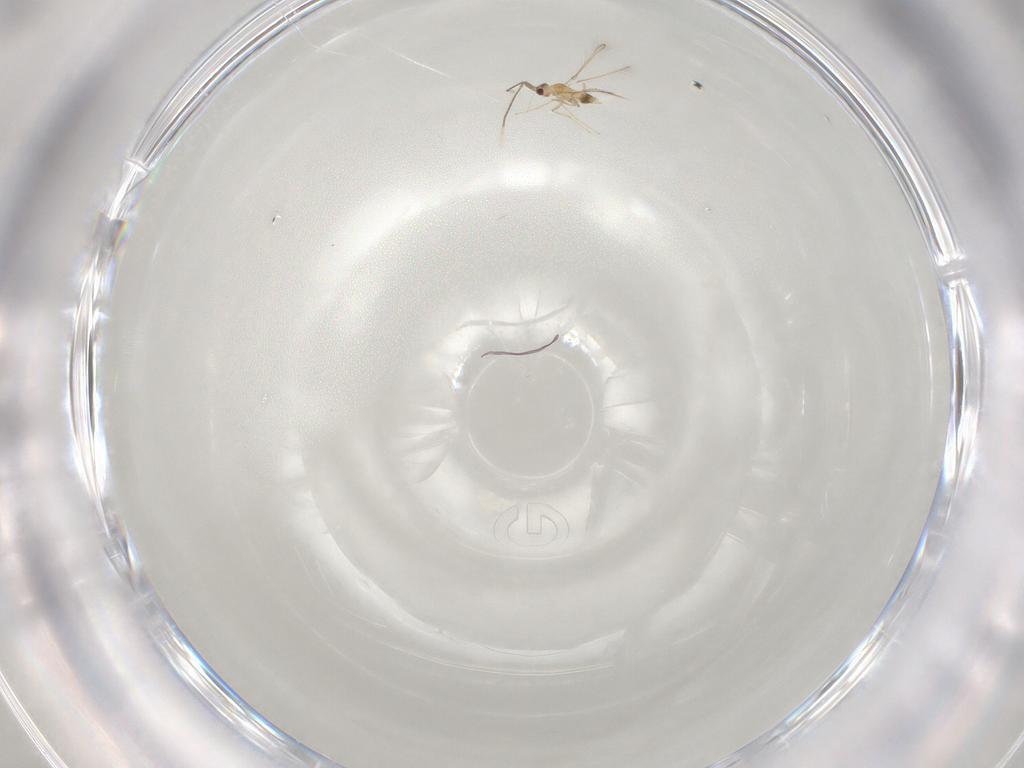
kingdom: Animalia
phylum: Arthropoda
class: Insecta
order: Hymenoptera
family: Mymaridae
